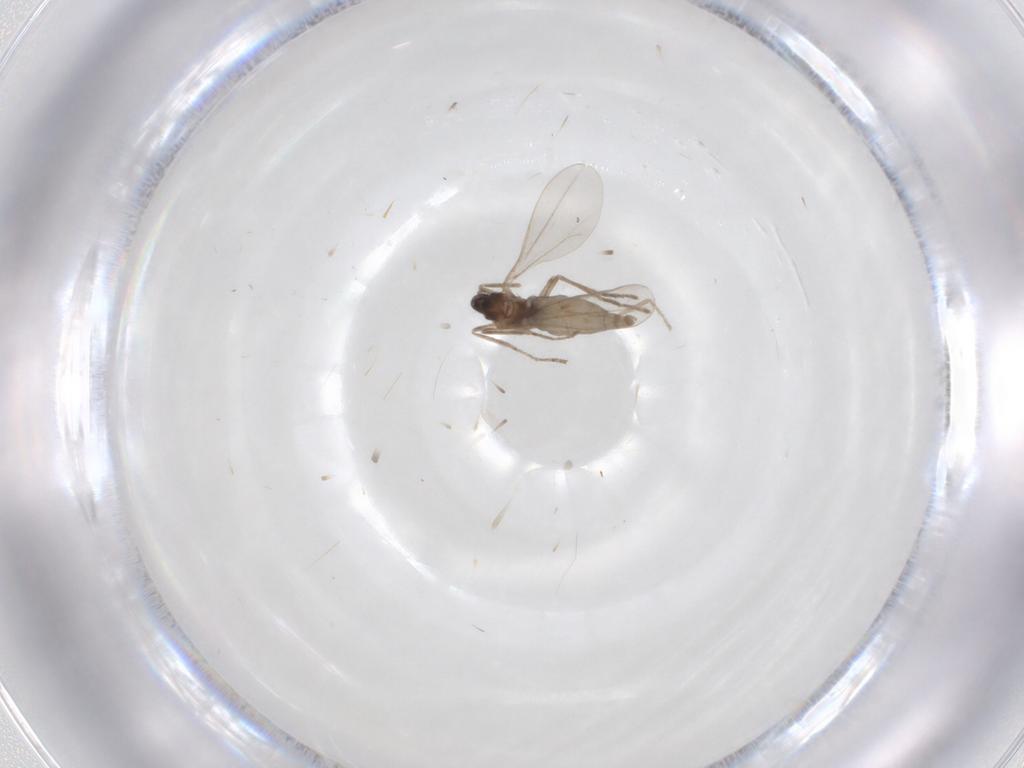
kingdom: Animalia
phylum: Arthropoda
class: Insecta
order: Diptera
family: Cecidomyiidae
